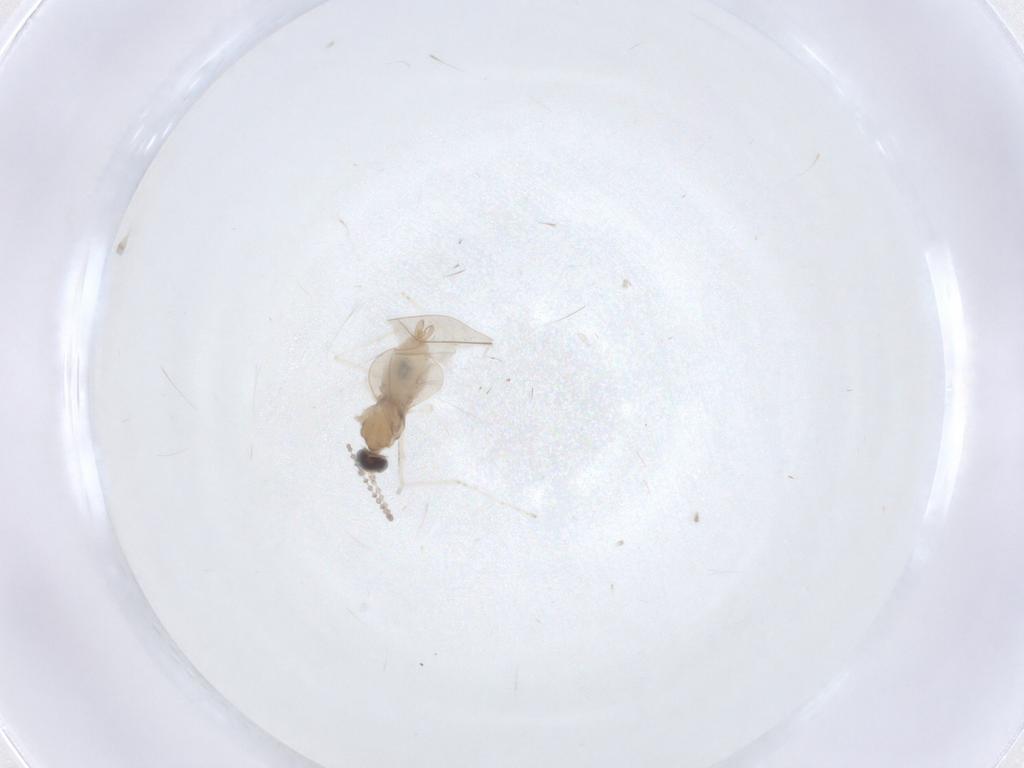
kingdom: Animalia
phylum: Arthropoda
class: Insecta
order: Diptera
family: Cecidomyiidae
